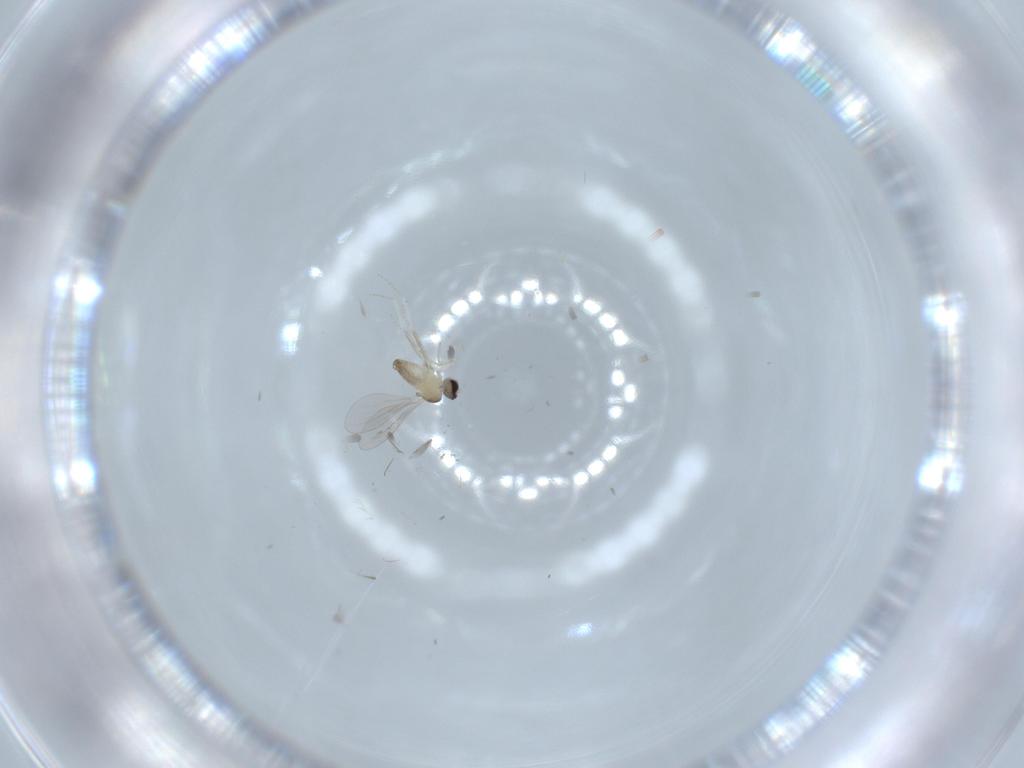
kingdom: Animalia
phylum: Arthropoda
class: Insecta
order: Diptera
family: Cecidomyiidae
